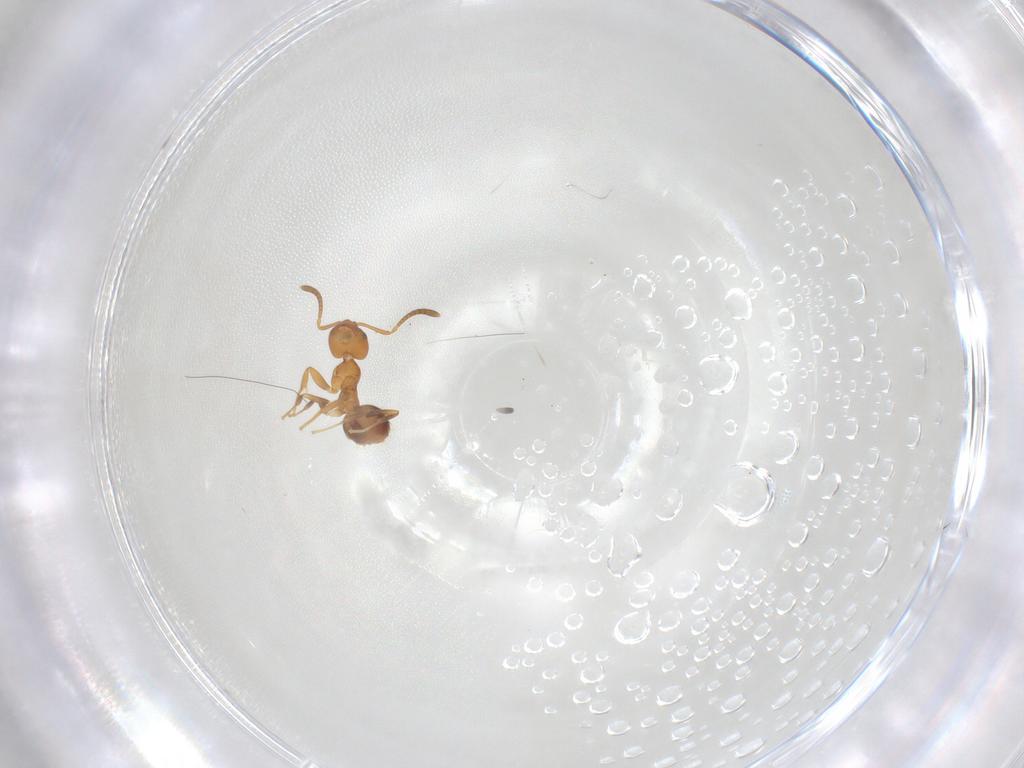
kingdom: Animalia
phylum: Arthropoda
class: Insecta
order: Hymenoptera
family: Formicidae
